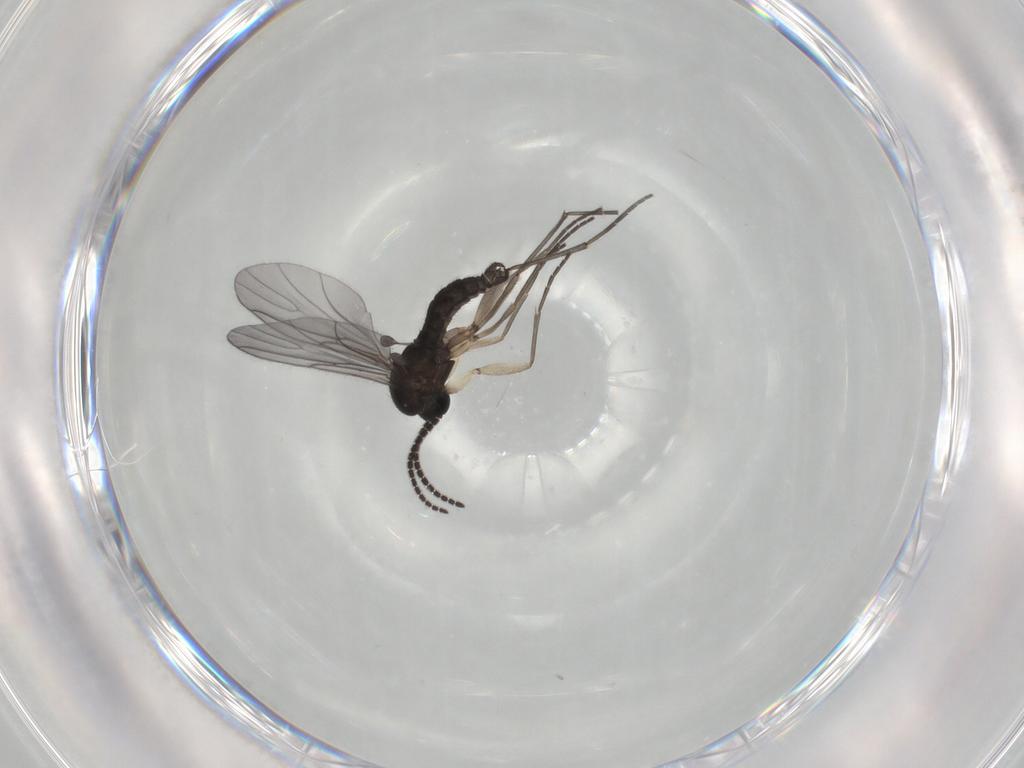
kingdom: Animalia
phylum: Arthropoda
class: Insecta
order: Diptera
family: Sciaridae
